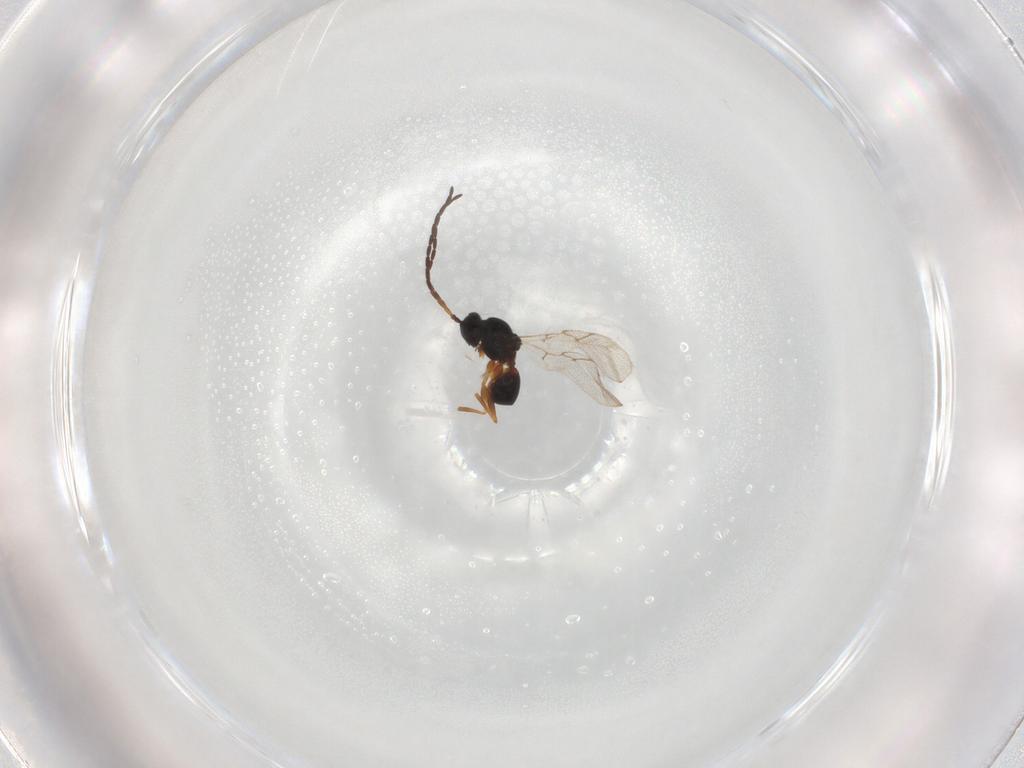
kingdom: Animalia
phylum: Arthropoda
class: Insecta
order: Hymenoptera
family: Figitidae
